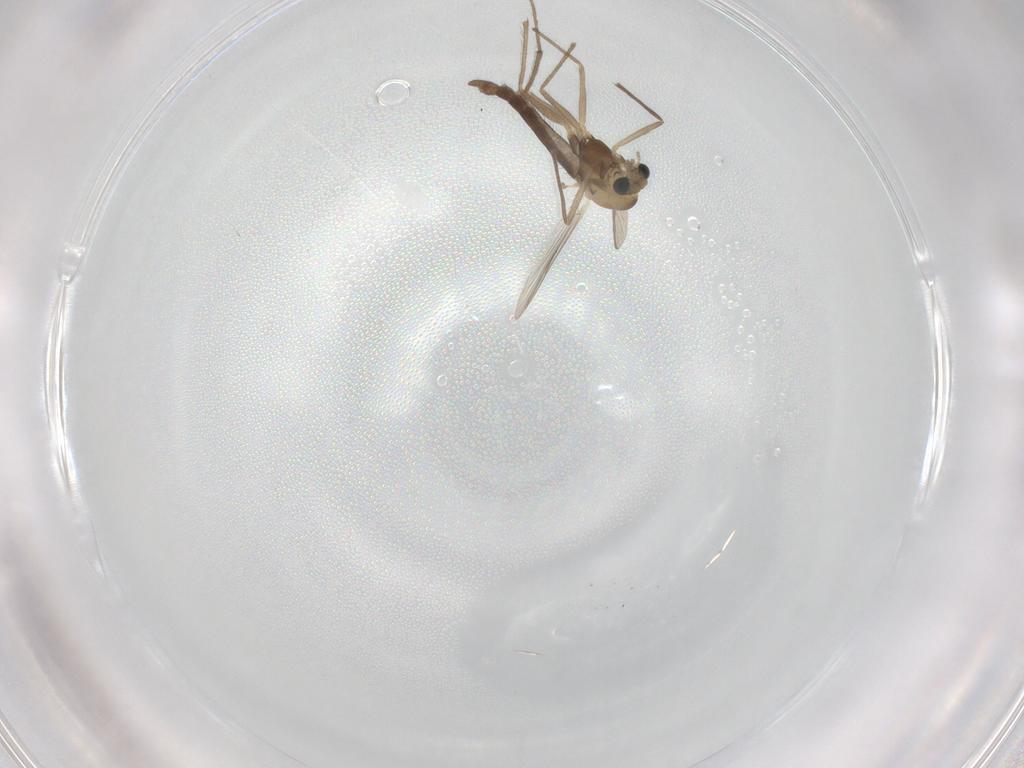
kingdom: Animalia
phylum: Arthropoda
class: Insecta
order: Diptera
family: Chironomidae
